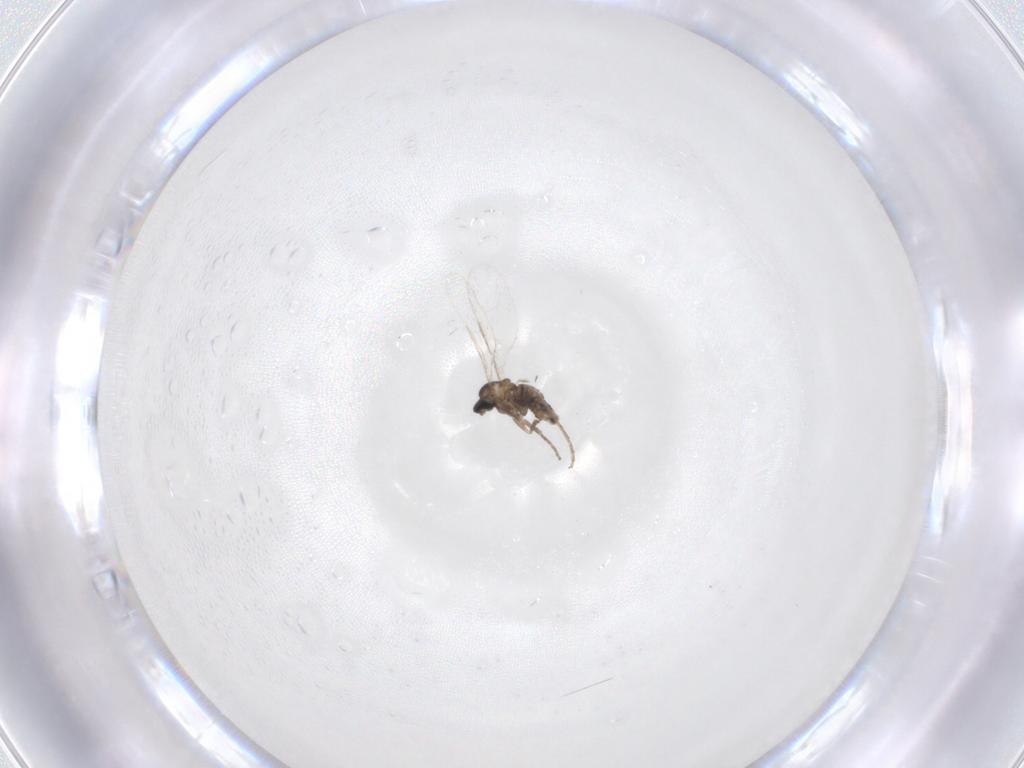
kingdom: Animalia
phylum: Arthropoda
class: Insecta
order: Diptera
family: Cecidomyiidae
